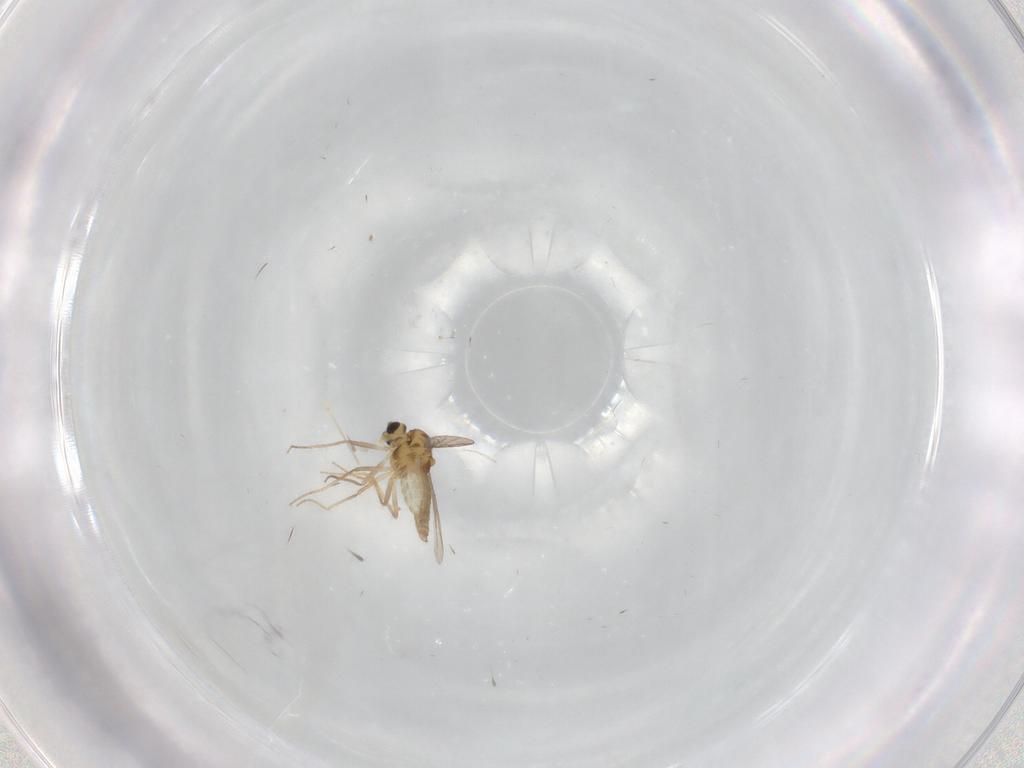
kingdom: Animalia
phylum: Arthropoda
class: Insecta
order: Diptera
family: Chironomidae
